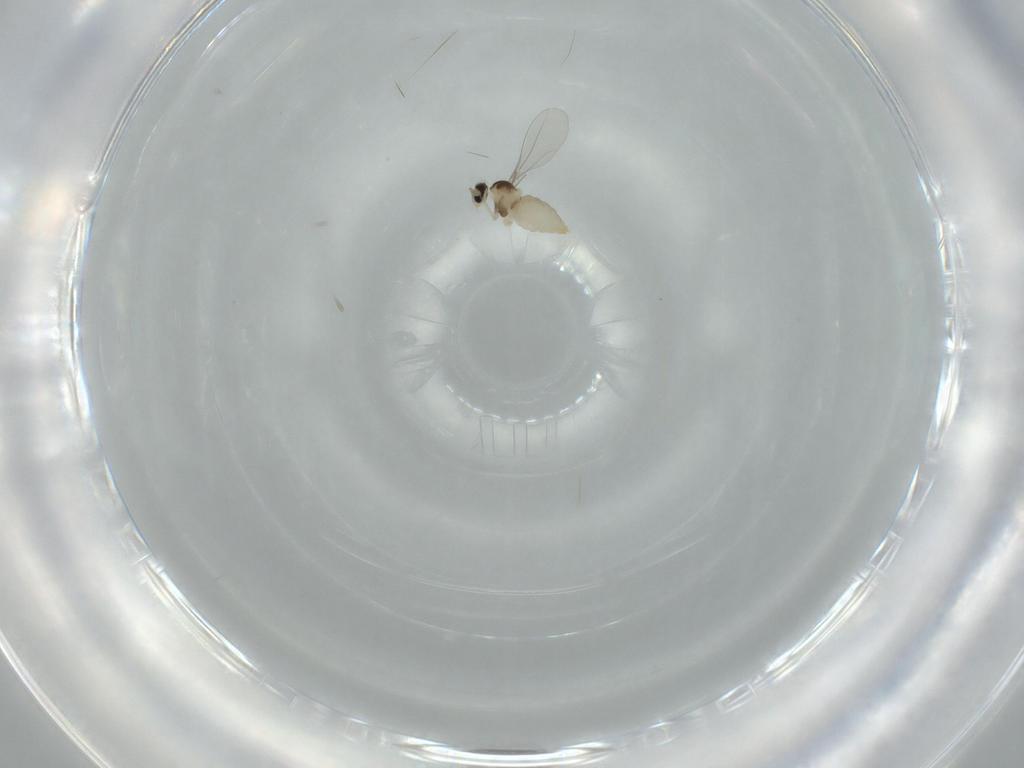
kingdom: Animalia
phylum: Arthropoda
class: Insecta
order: Diptera
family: Cecidomyiidae
